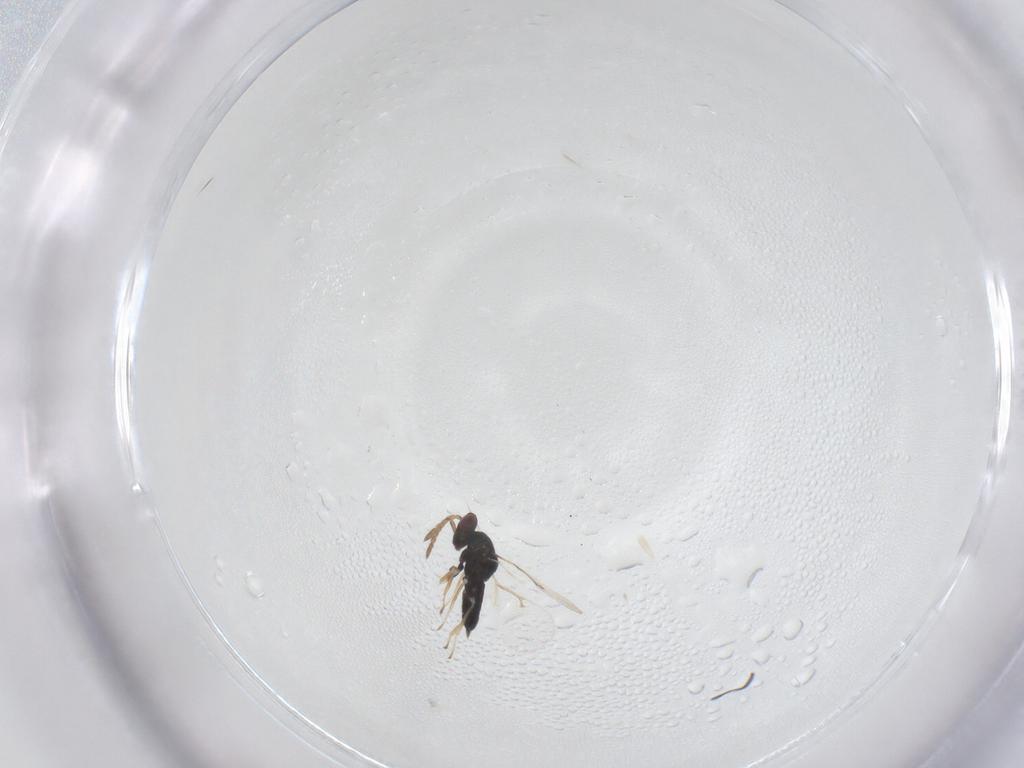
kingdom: Animalia
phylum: Arthropoda
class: Insecta
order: Hymenoptera
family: Eulophidae
